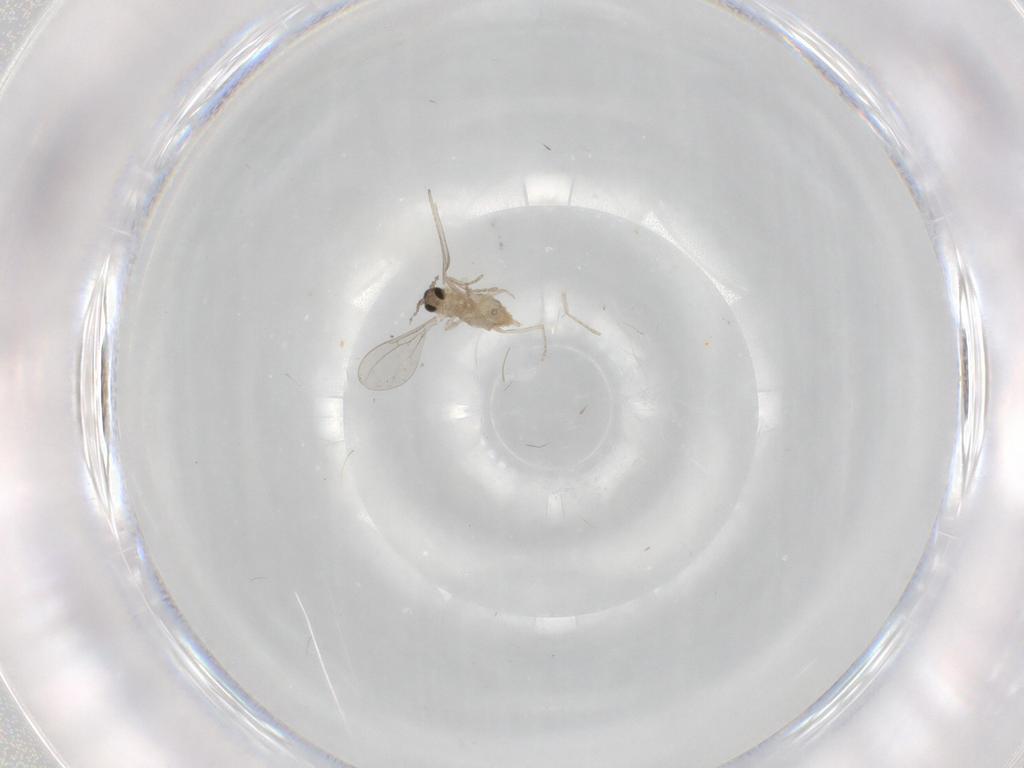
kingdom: Animalia
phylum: Arthropoda
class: Insecta
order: Diptera
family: Cecidomyiidae
